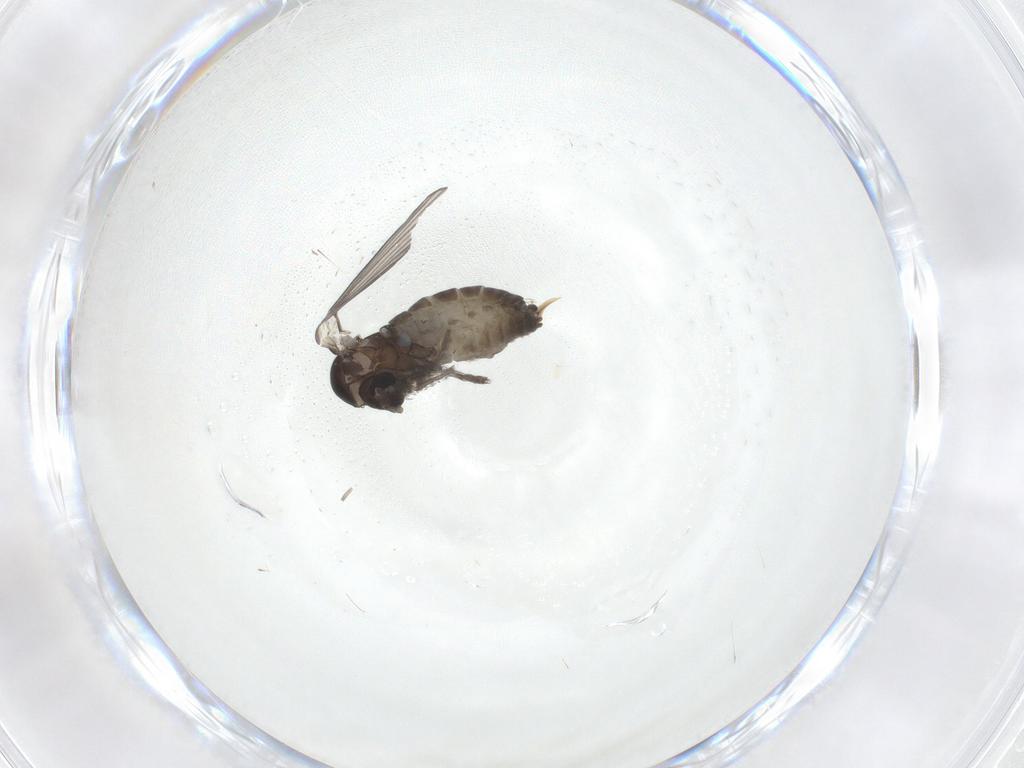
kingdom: Animalia
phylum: Arthropoda
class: Insecta
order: Diptera
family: Psychodidae
